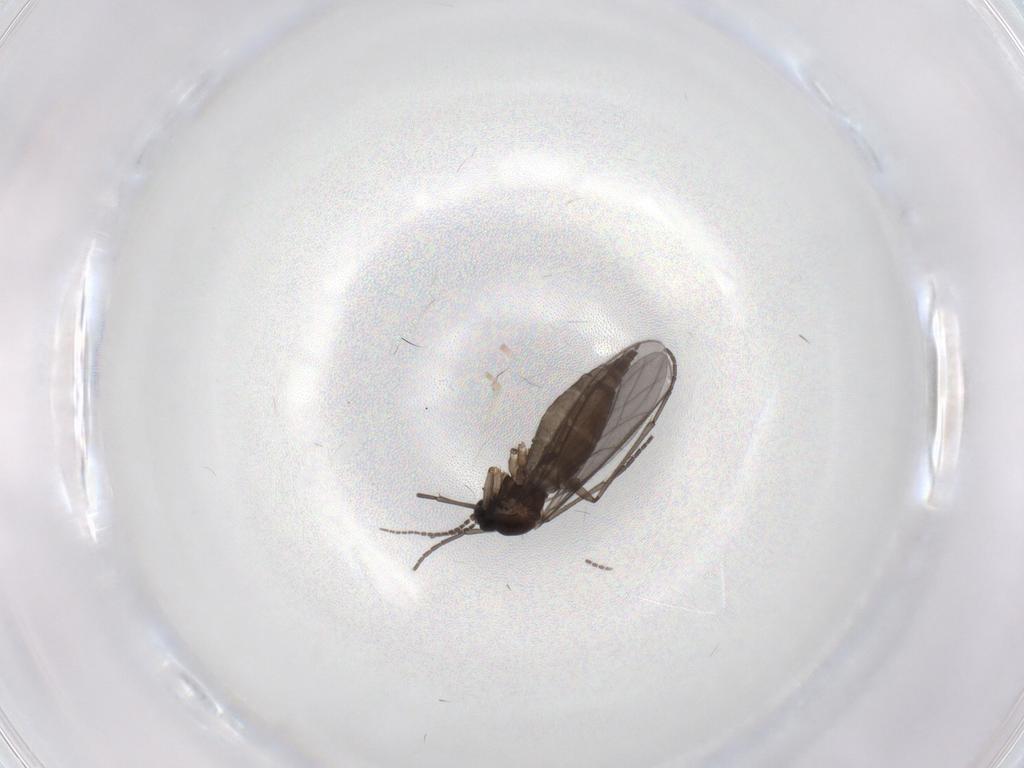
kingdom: Animalia
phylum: Arthropoda
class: Insecta
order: Diptera
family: Sciaridae
